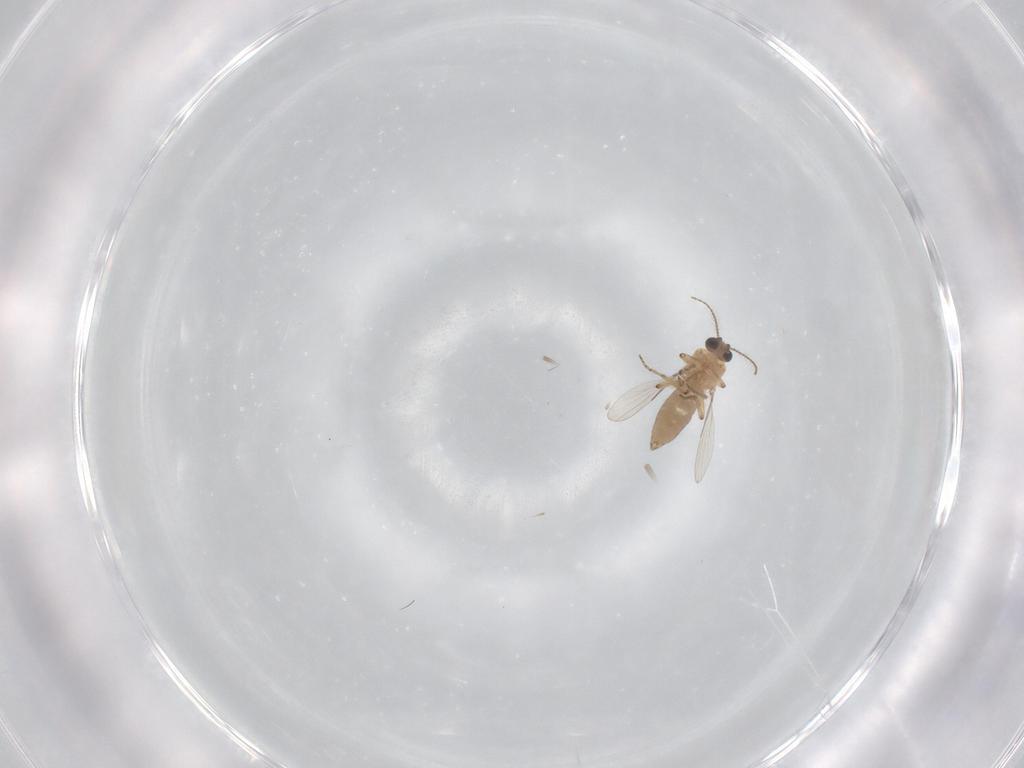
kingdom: Animalia
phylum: Arthropoda
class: Insecta
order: Diptera
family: Ceratopogonidae
